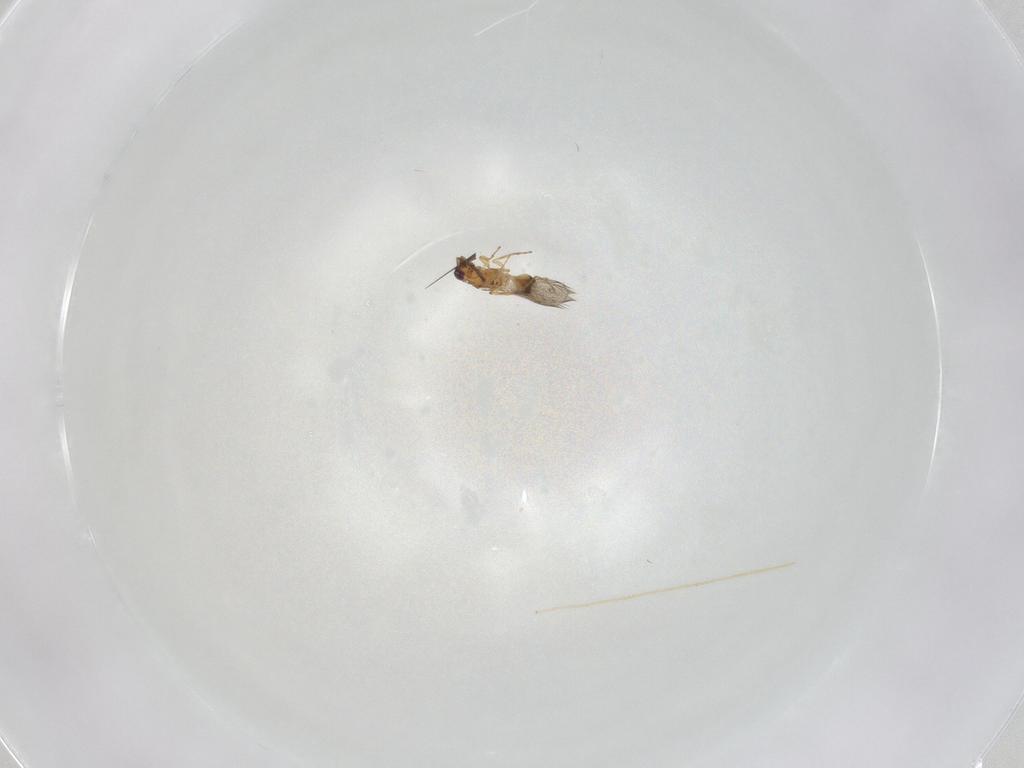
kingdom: Animalia
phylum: Arthropoda
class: Insecta
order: Hymenoptera
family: Mymaridae
